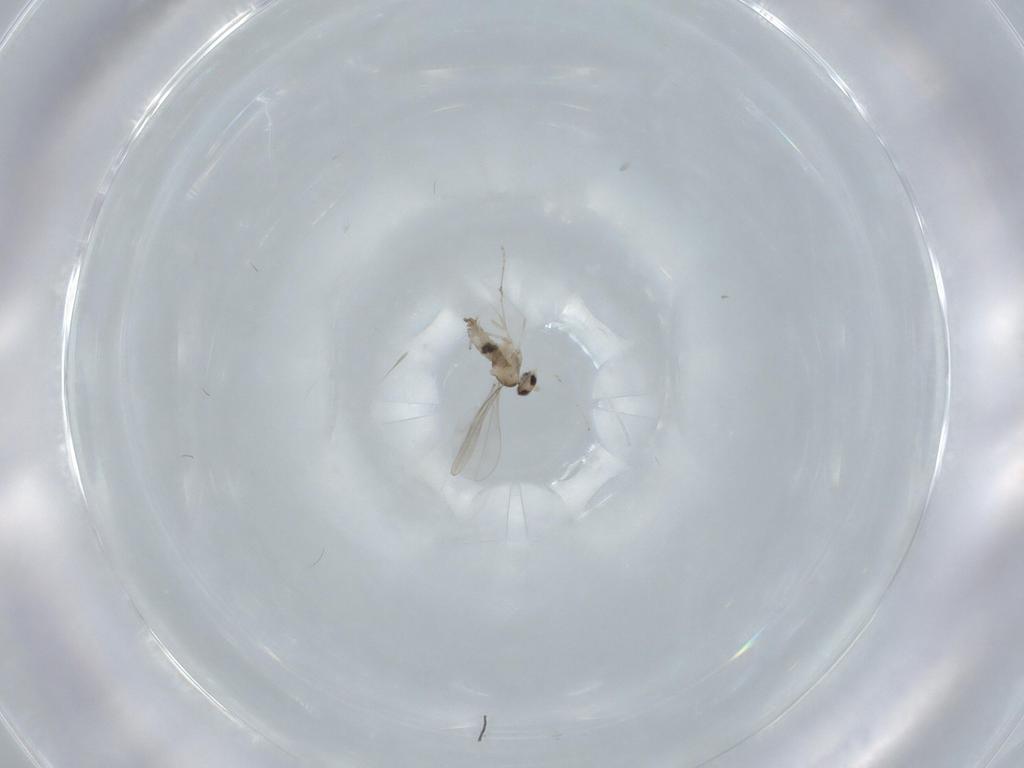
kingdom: Animalia
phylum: Arthropoda
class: Insecta
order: Diptera
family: Cecidomyiidae
